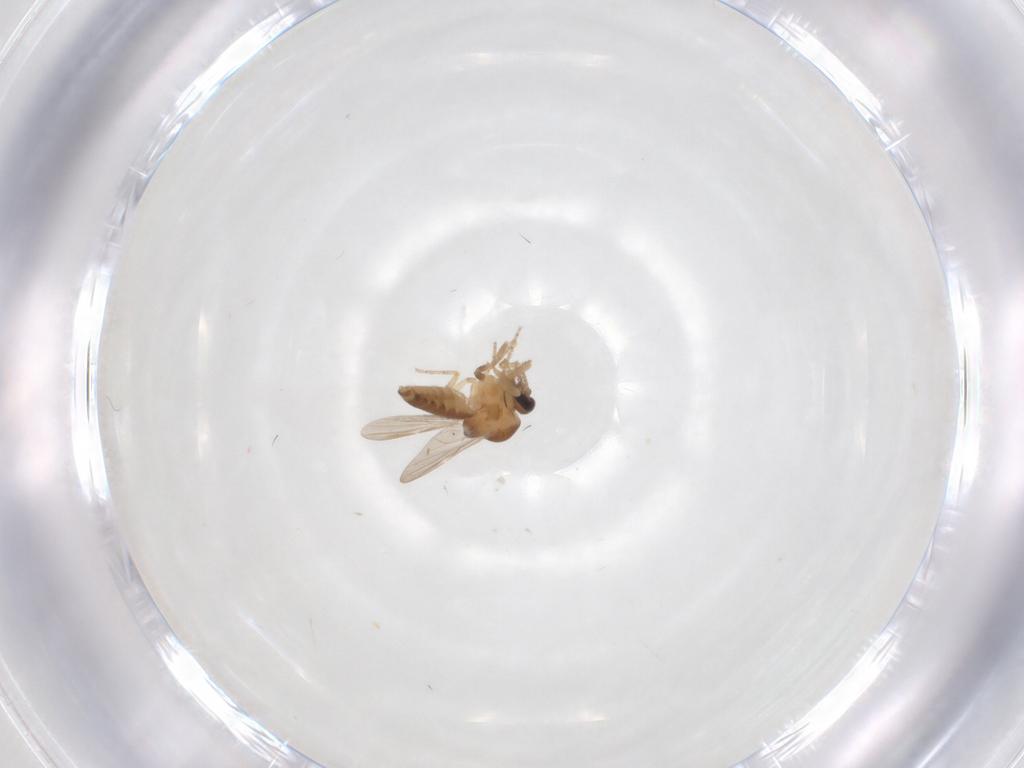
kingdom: Animalia
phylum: Arthropoda
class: Insecta
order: Diptera
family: Ceratopogonidae
